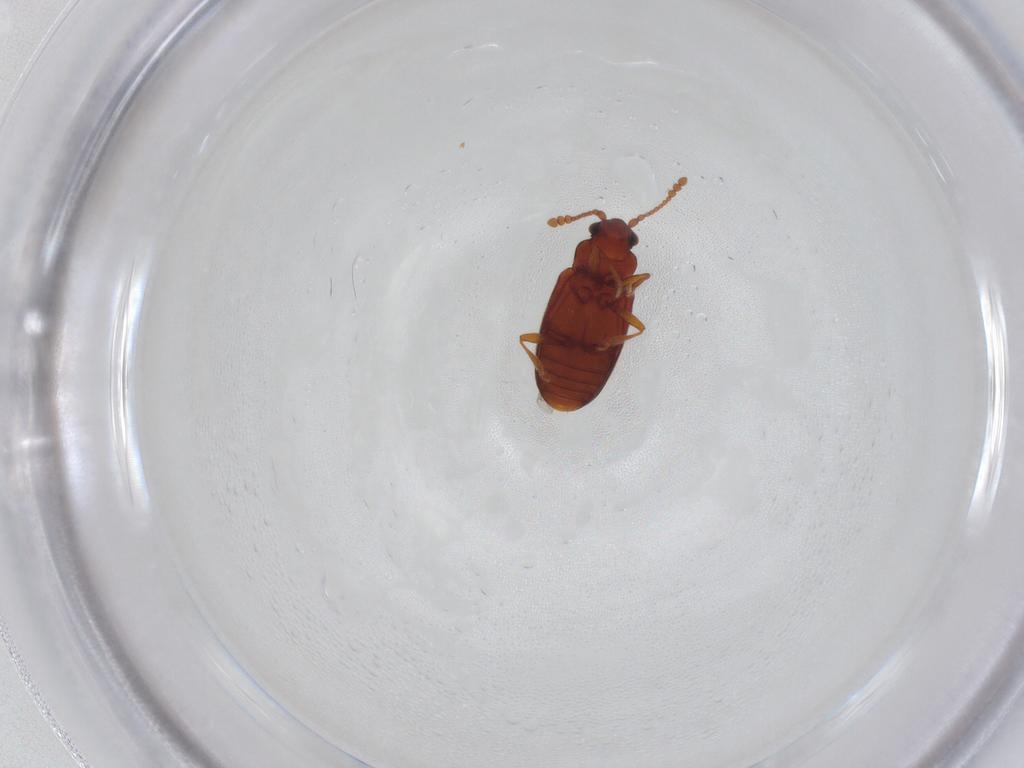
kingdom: Animalia
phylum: Arthropoda
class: Insecta
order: Coleoptera
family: Cryptophagidae
